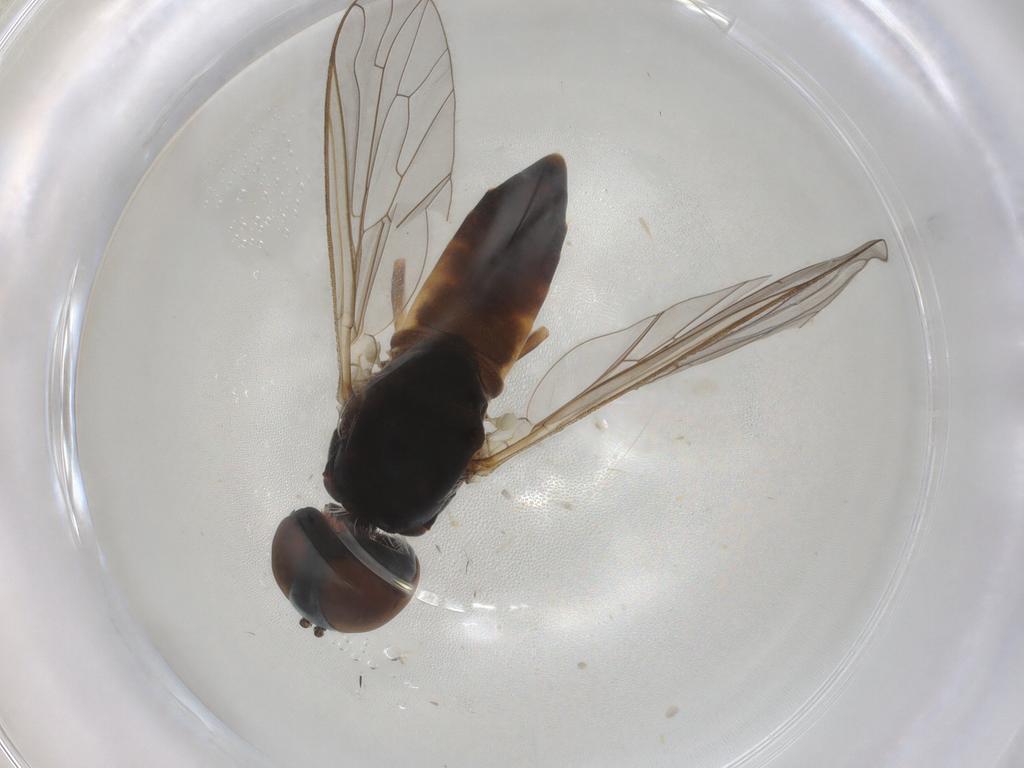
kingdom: Animalia
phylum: Arthropoda
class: Insecta
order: Diptera
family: Bombyliidae
